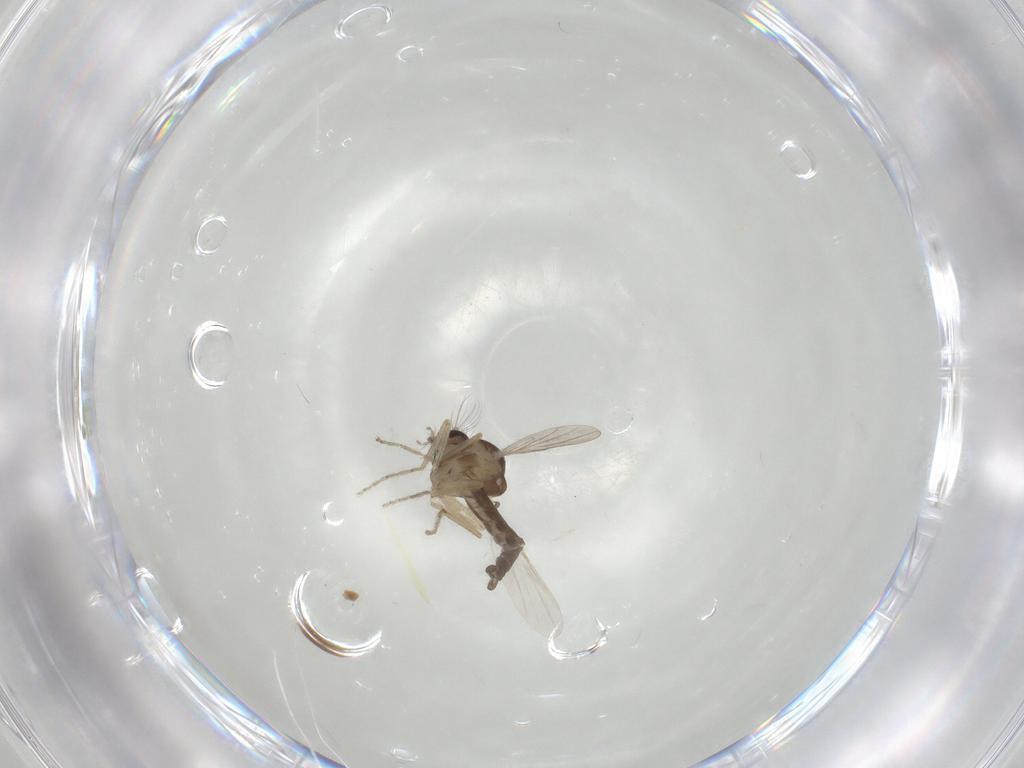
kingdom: Animalia
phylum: Arthropoda
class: Insecta
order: Diptera
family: Ceratopogonidae
